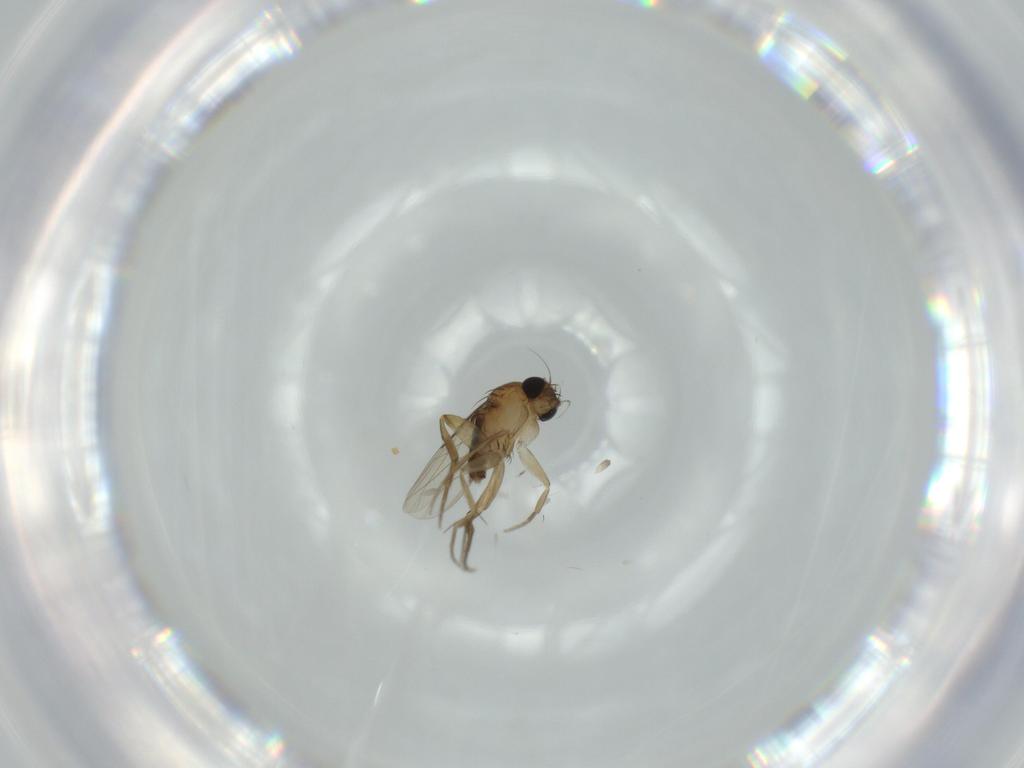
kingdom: Animalia
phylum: Arthropoda
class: Insecta
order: Diptera
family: Phoridae
